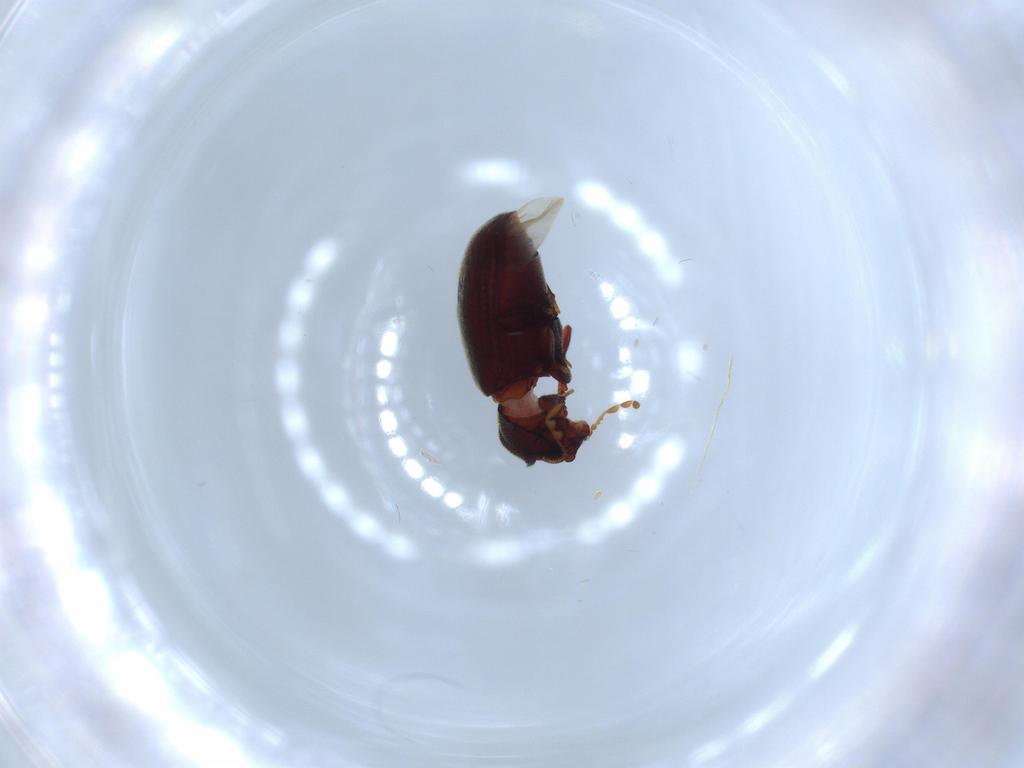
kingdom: Animalia
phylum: Arthropoda
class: Insecta
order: Coleoptera
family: Anobiidae
